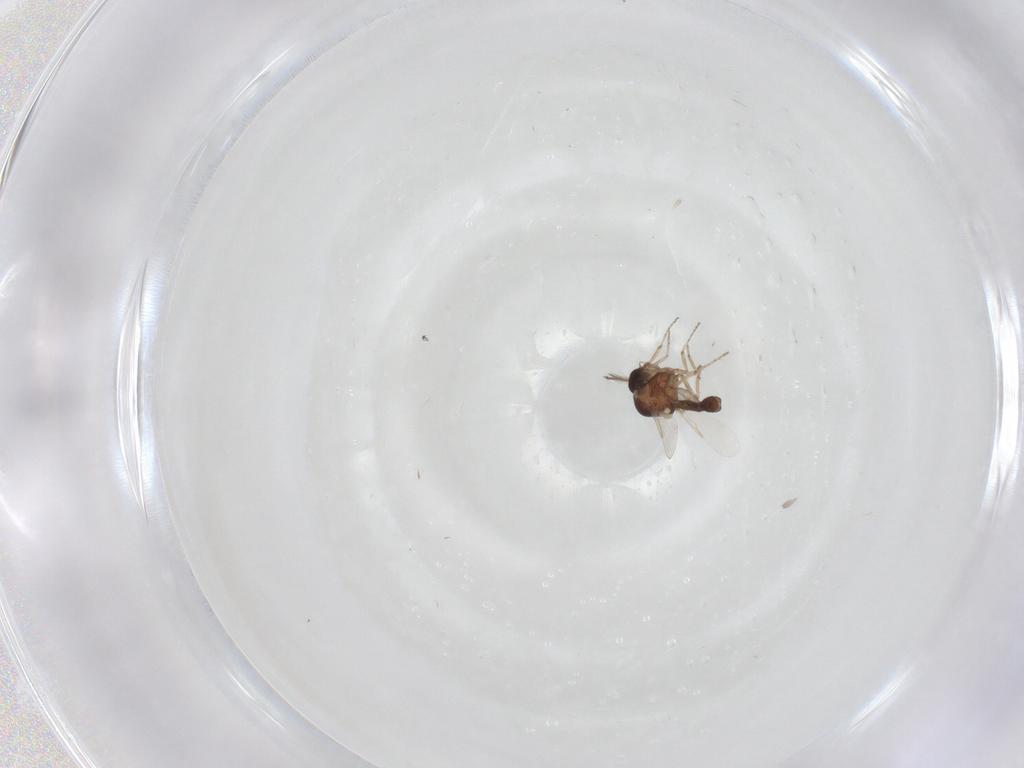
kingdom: Animalia
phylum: Arthropoda
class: Insecta
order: Diptera
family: Ceratopogonidae
